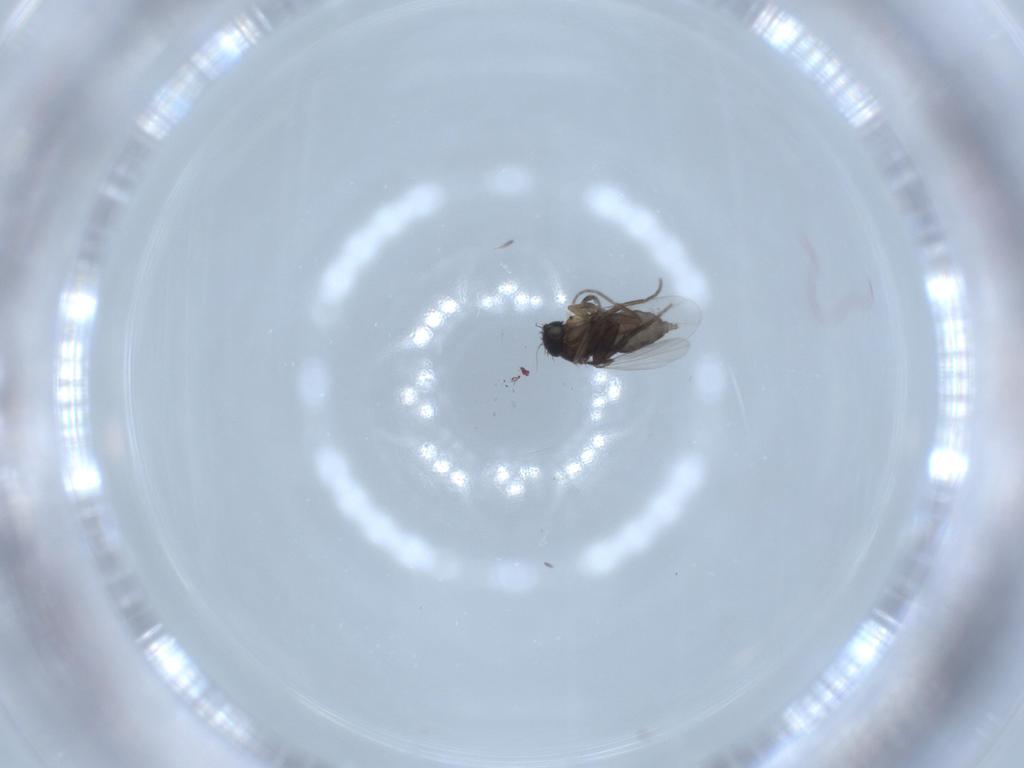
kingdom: Animalia
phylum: Arthropoda
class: Insecta
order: Diptera
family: Phoridae
